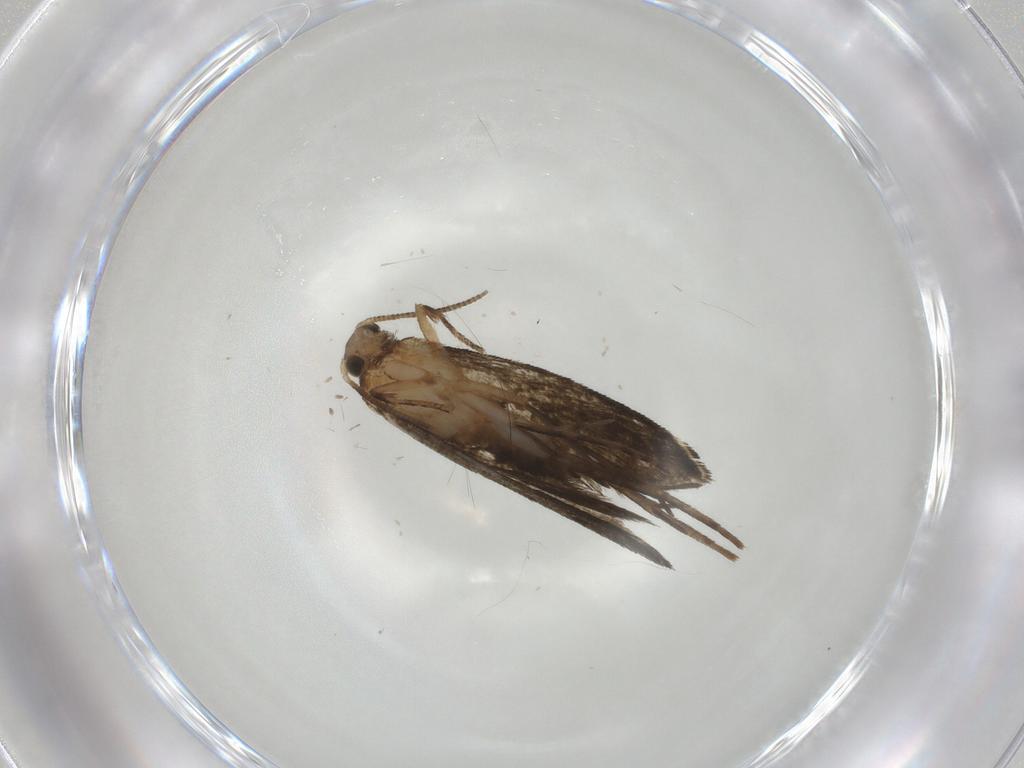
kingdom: Animalia
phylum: Arthropoda
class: Insecta
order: Lepidoptera
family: Tineidae
